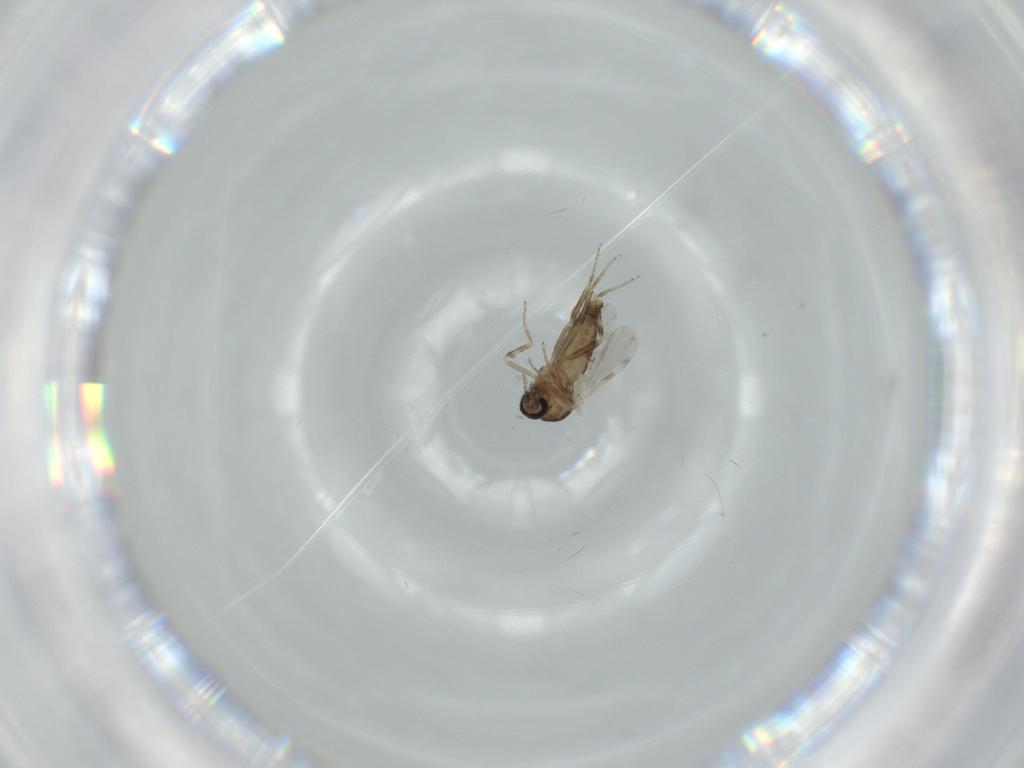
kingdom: Animalia
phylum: Arthropoda
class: Insecta
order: Diptera
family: Ceratopogonidae
